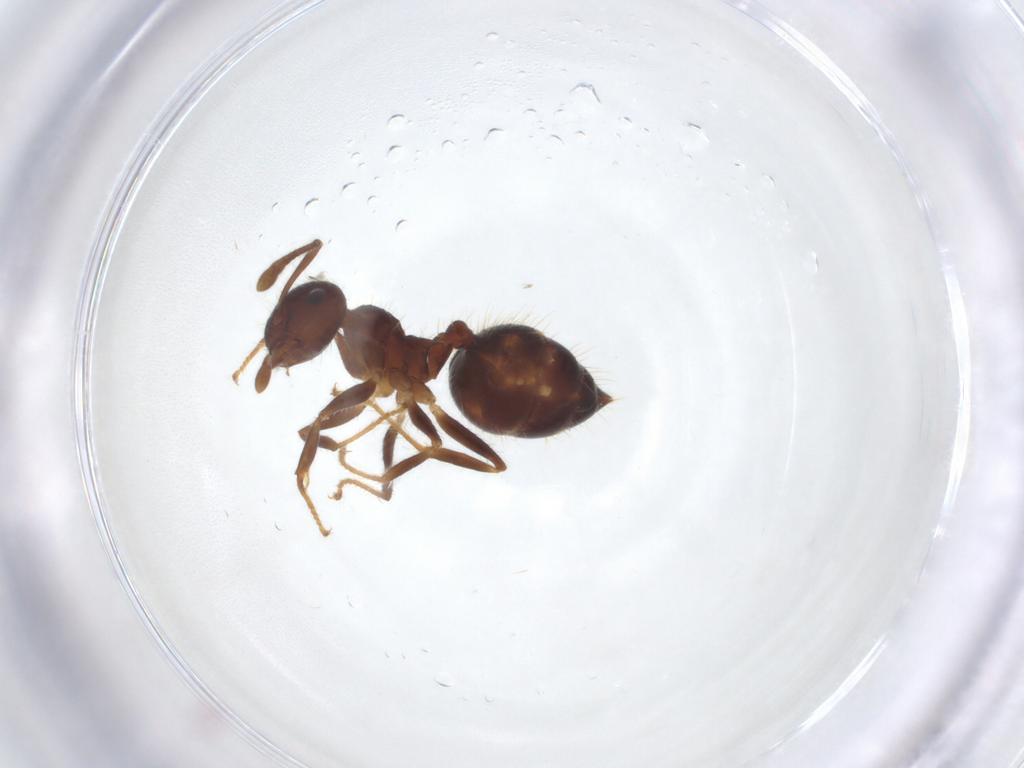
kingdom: Animalia
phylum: Arthropoda
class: Insecta
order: Hymenoptera
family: Formicidae
